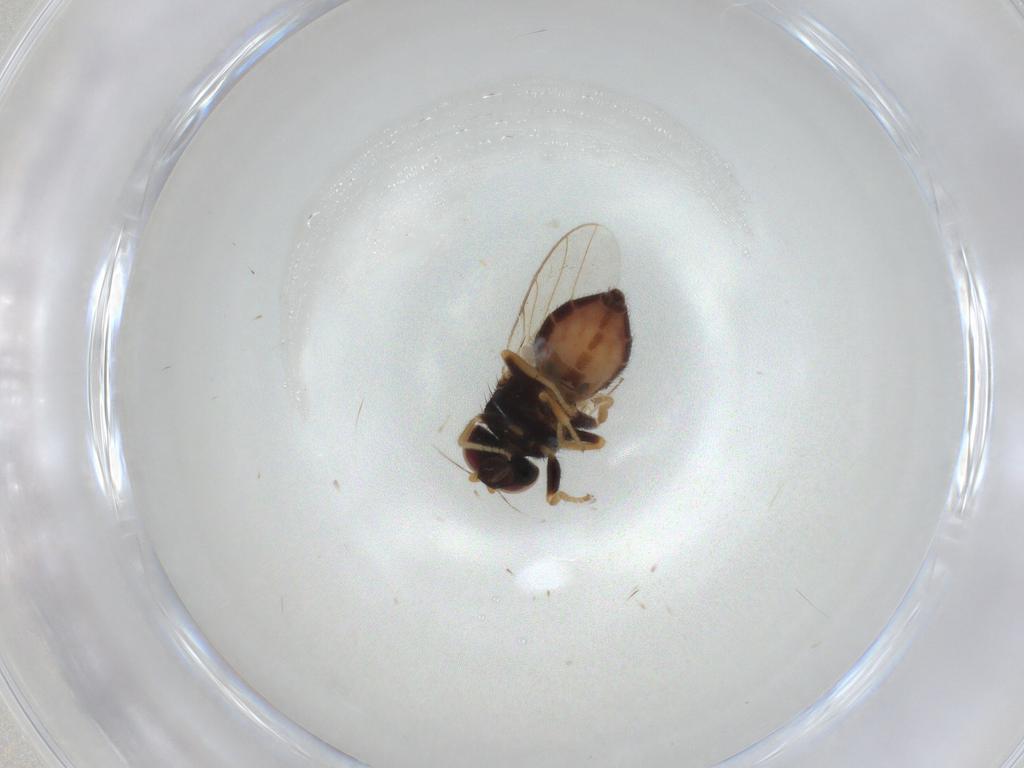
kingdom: Animalia
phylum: Arthropoda
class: Insecta
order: Diptera
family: Chloropidae
